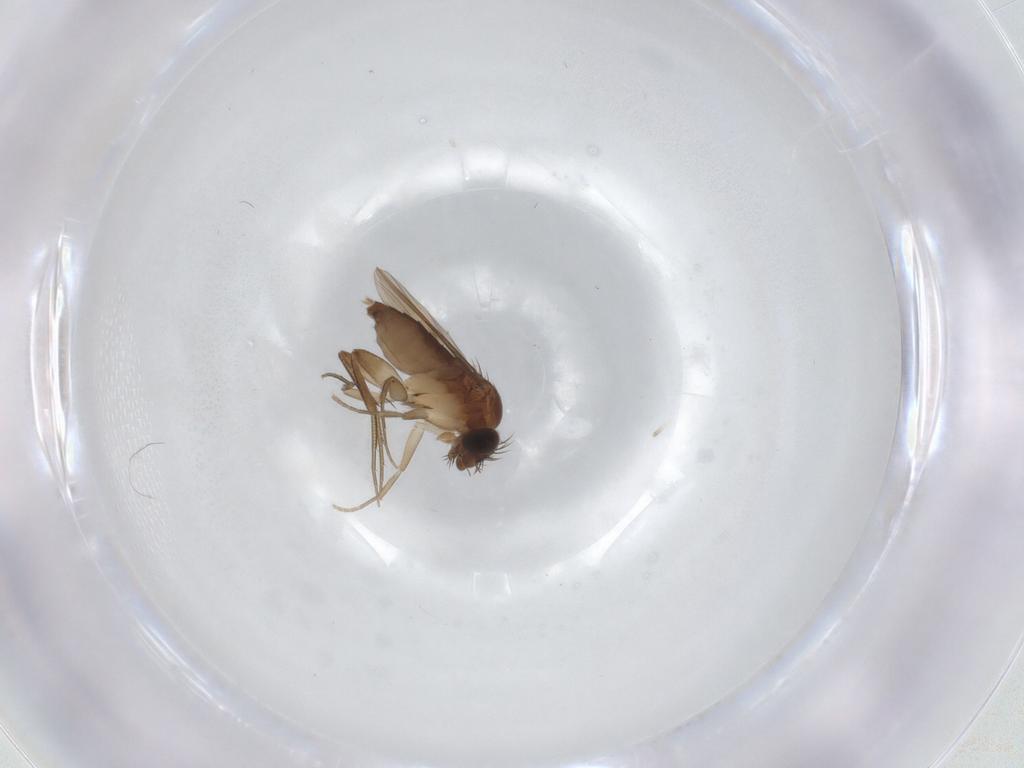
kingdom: Animalia
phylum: Arthropoda
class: Insecta
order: Diptera
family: Phoridae
